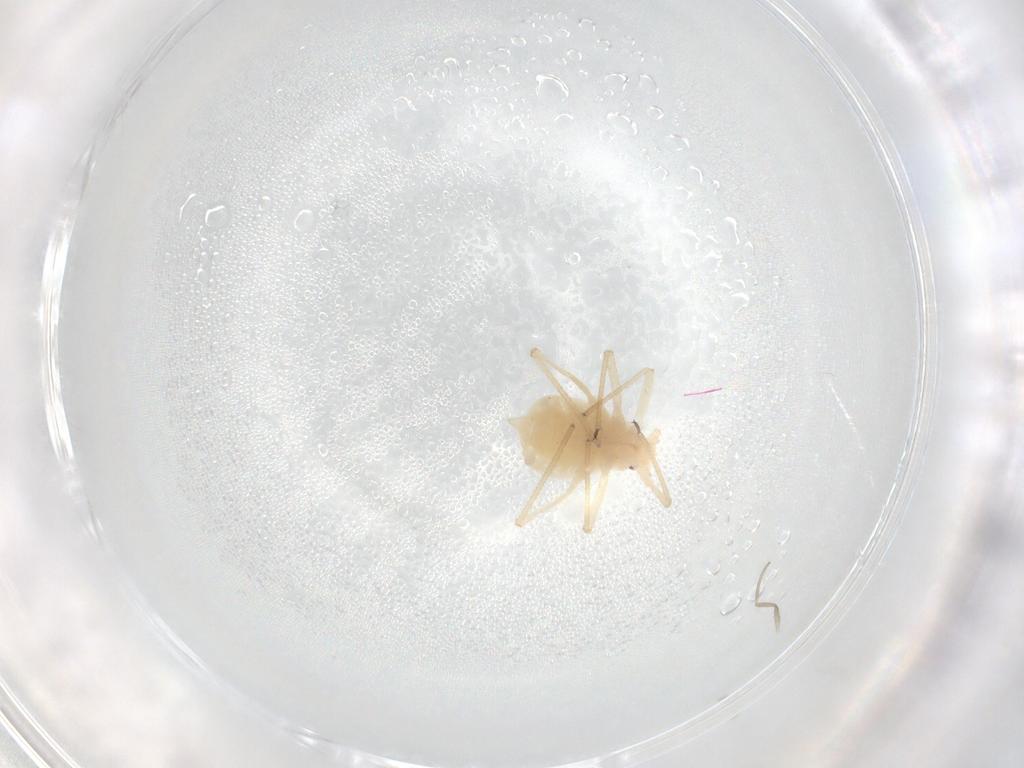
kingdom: Animalia
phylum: Arthropoda
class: Insecta
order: Hemiptera
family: Aphididae
